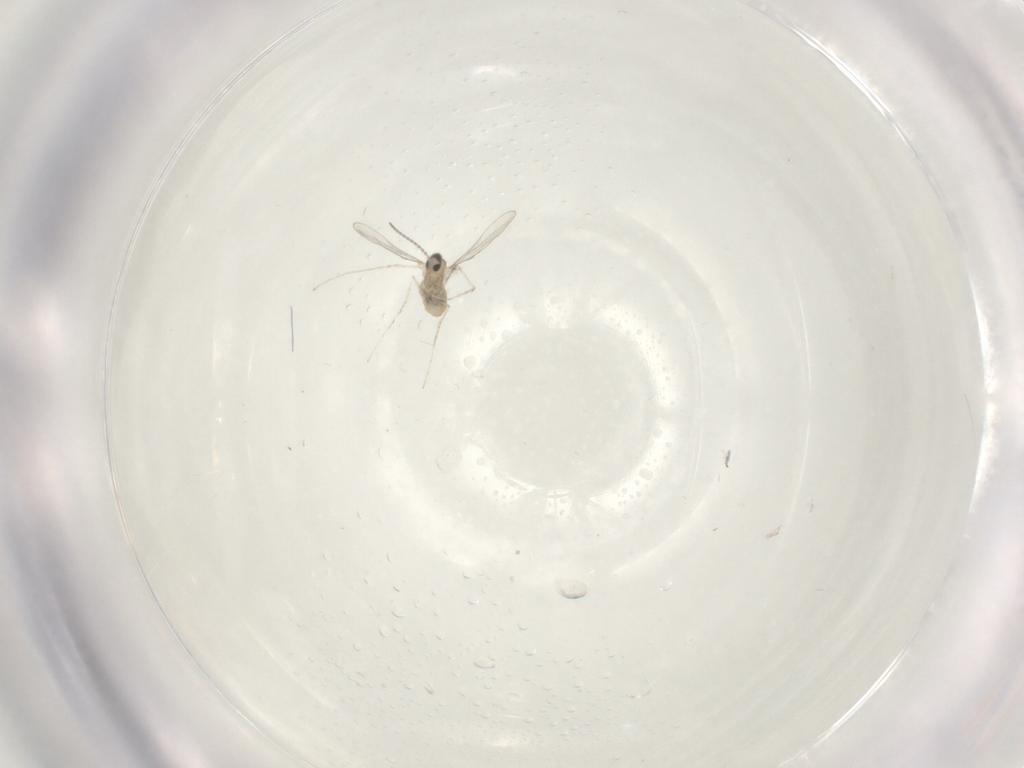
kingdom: Animalia
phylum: Arthropoda
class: Insecta
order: Diptera
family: Cecidomyiidae
